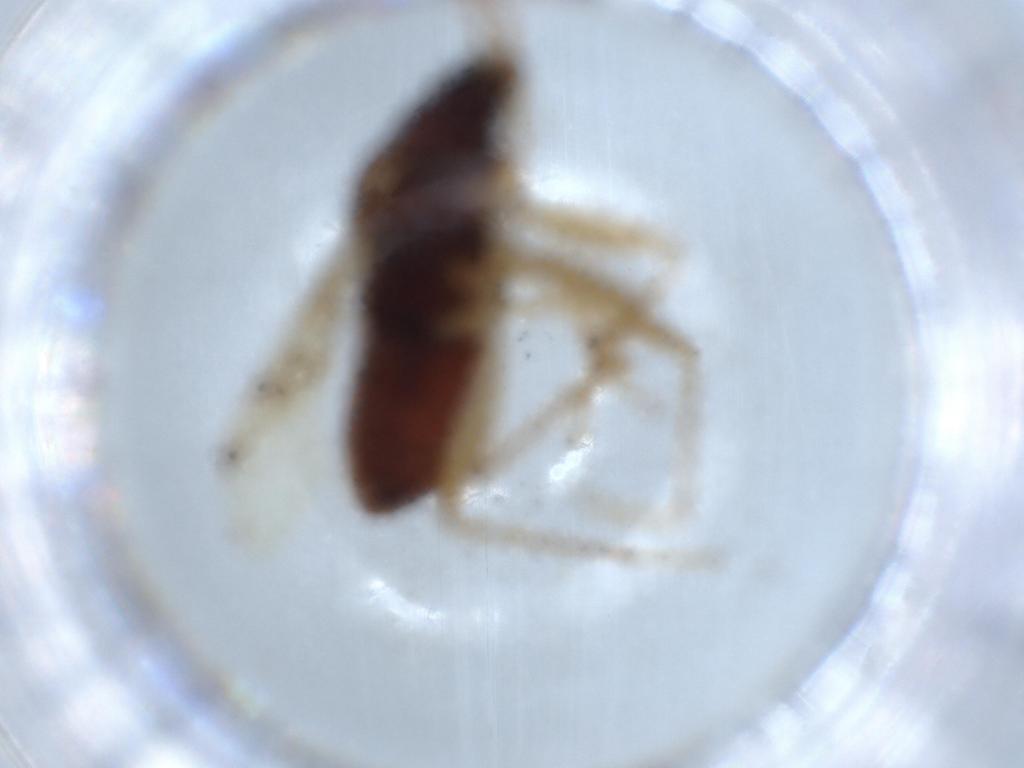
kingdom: Animalia
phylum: Arthropoda
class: Insecta
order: Hemiptera
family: Rhyparochromidae
